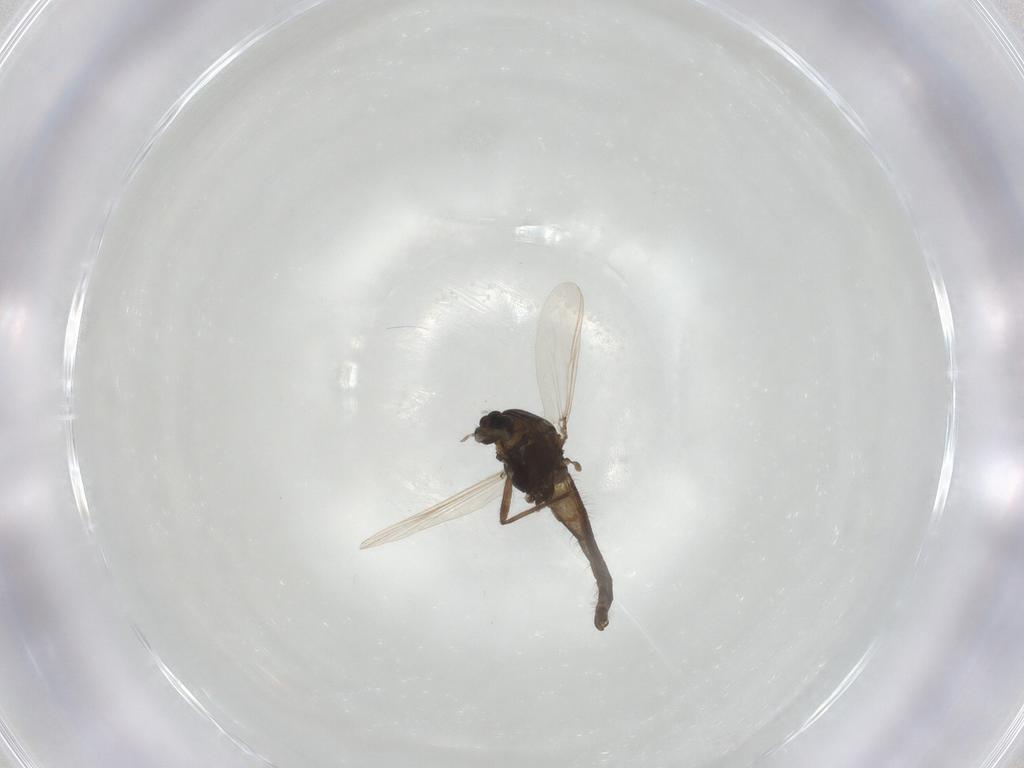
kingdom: Animalia
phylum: Arthropoda
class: Insecta
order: Diptera
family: Chironomidae
